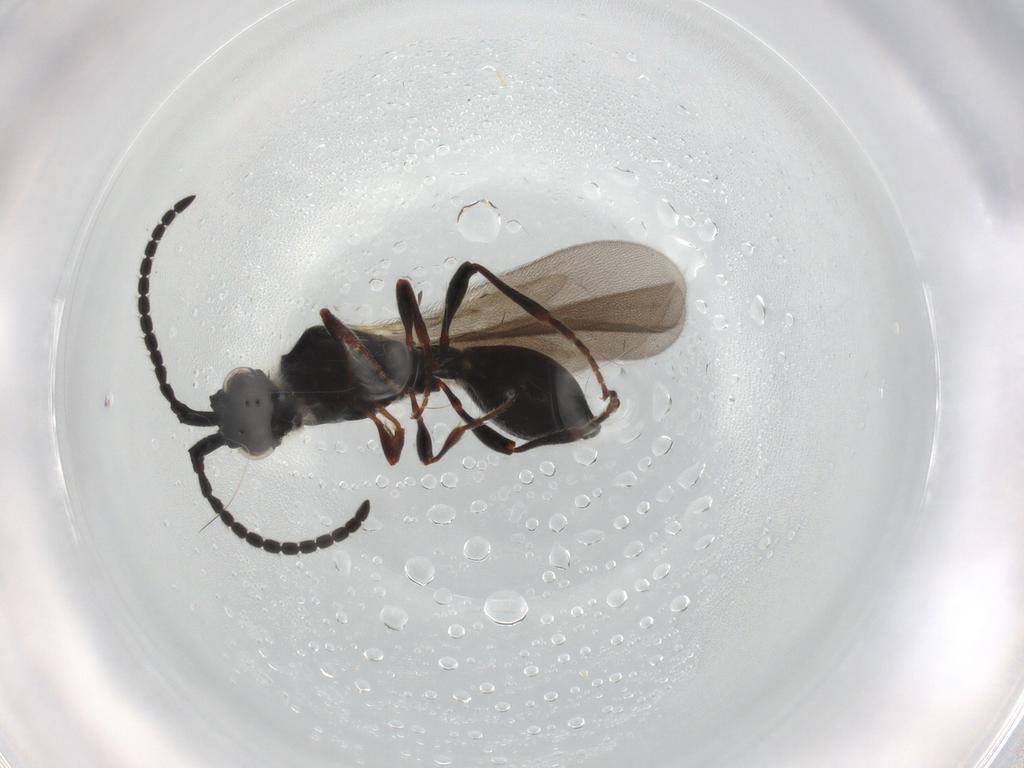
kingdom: Animalia
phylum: Arthropoda
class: Insecta
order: Hymenoptera
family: Diapriidae
